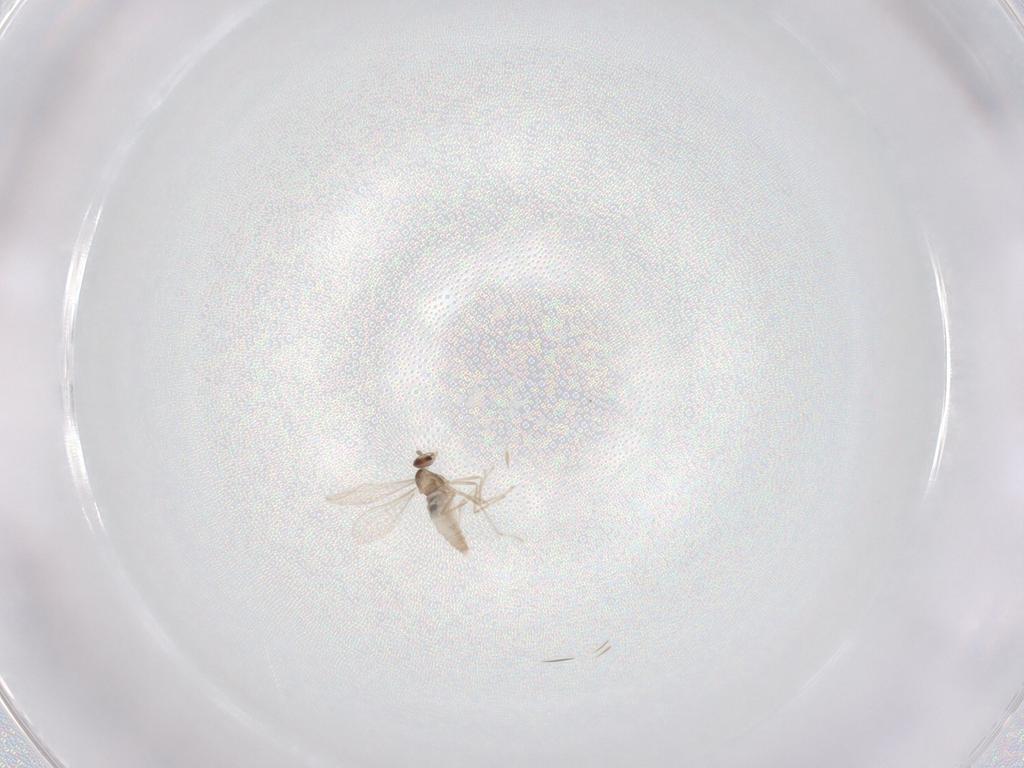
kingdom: Animalia
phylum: Arthropoda
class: Insecta
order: Diptera
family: Cecidomyiidae
